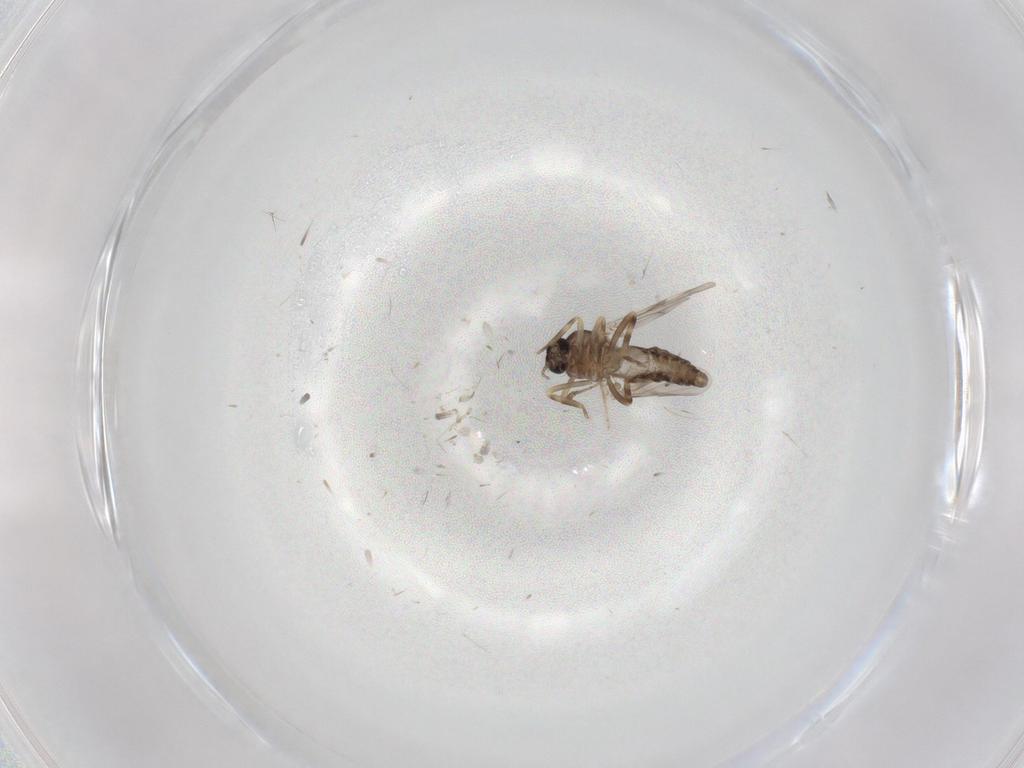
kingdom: Animalia
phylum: Arthropoda
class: Insecta
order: Diptera
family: Ceratopogonidae
